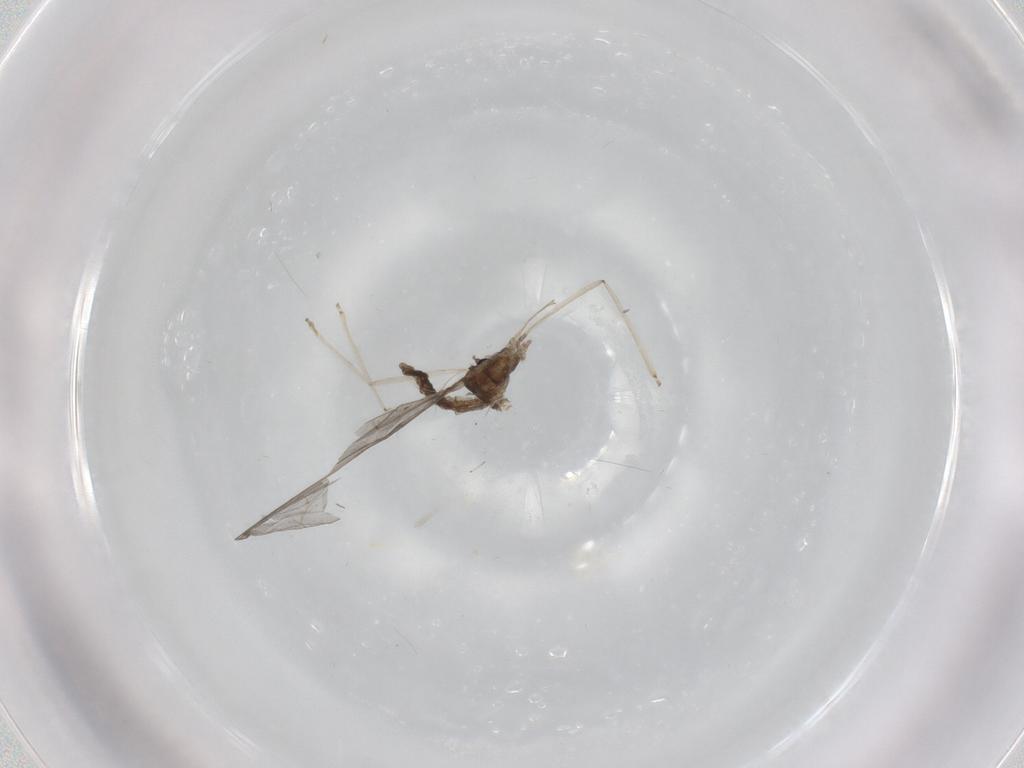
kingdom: Animalia
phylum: Arthropoda
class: Insecta
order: Diptera
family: Cecidomyiidae
